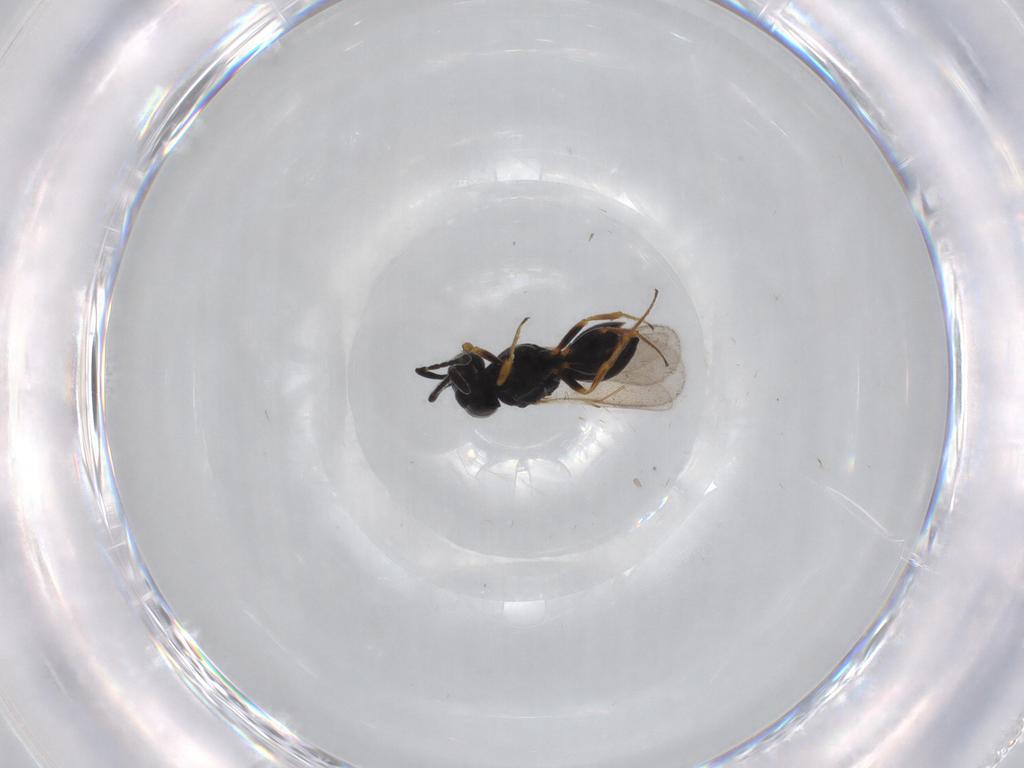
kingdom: Animalia
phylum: Arthropoda
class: Insecta
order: Hymenoptera
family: Scelionidae
